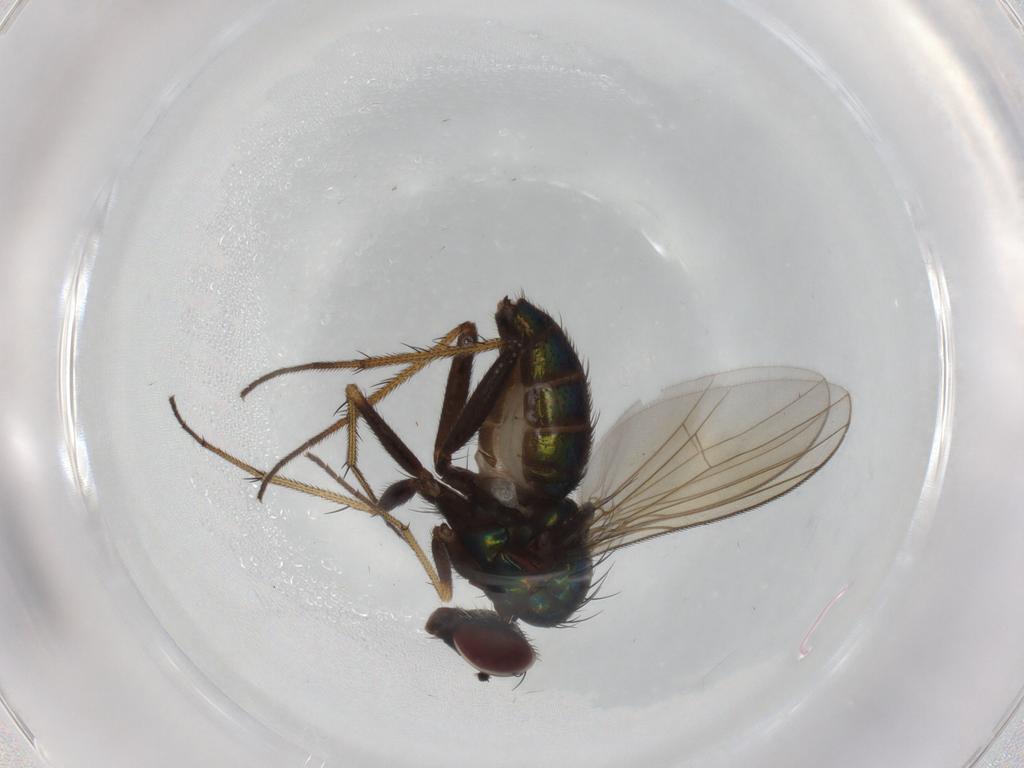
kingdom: Animalia
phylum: Arthropoda
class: Insecta
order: Diptera
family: Dolichopodidae
